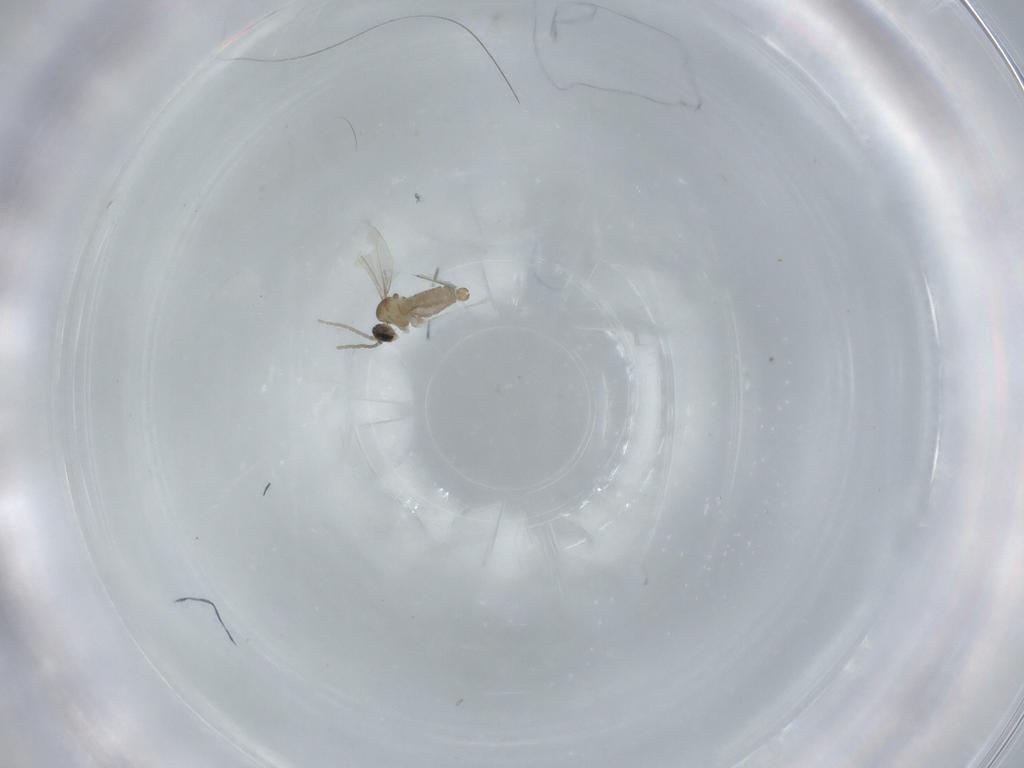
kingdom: Animalia
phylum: Arthropoda
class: Insecta
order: Diptera
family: Cecidomyiidae
